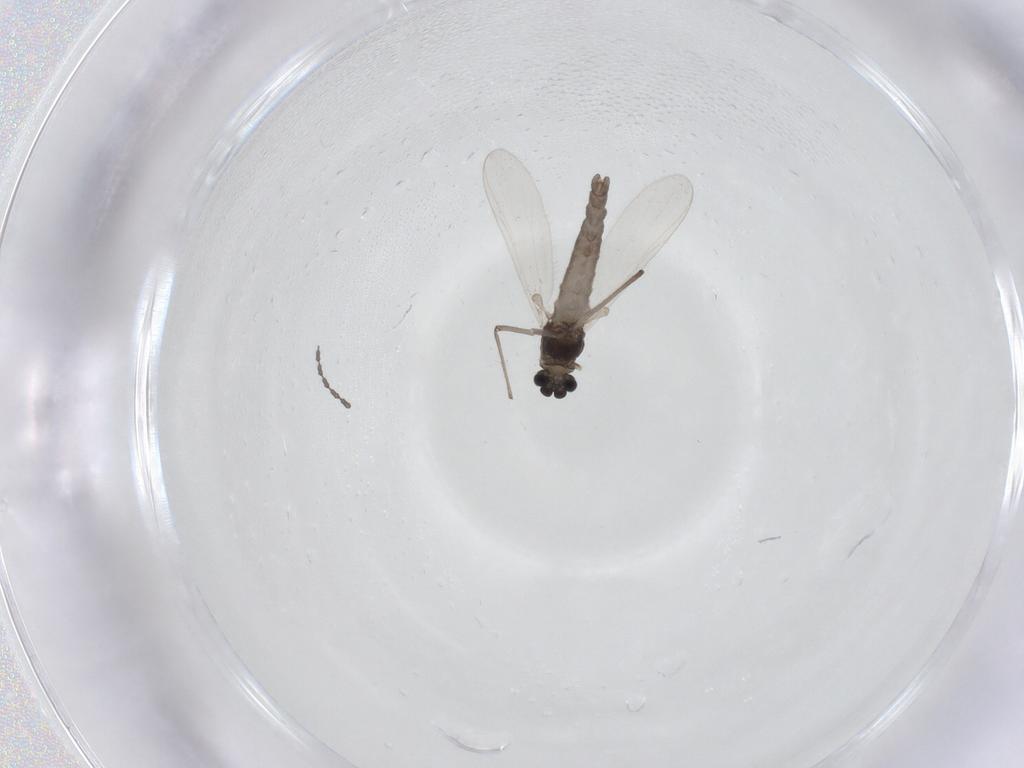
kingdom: Animalia
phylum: Arthropoda
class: Insecta
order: Diptera
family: Chironomidae
